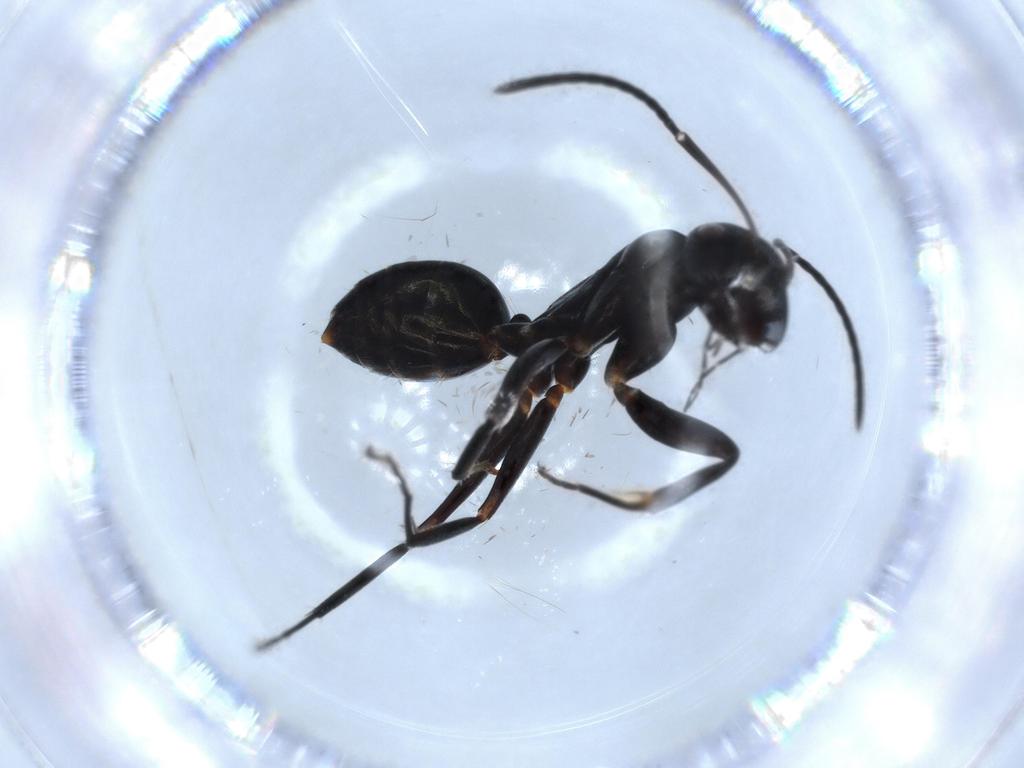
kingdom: Animalia
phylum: Arthropoda
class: Insecta
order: Hymenoptera
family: Formicidae
